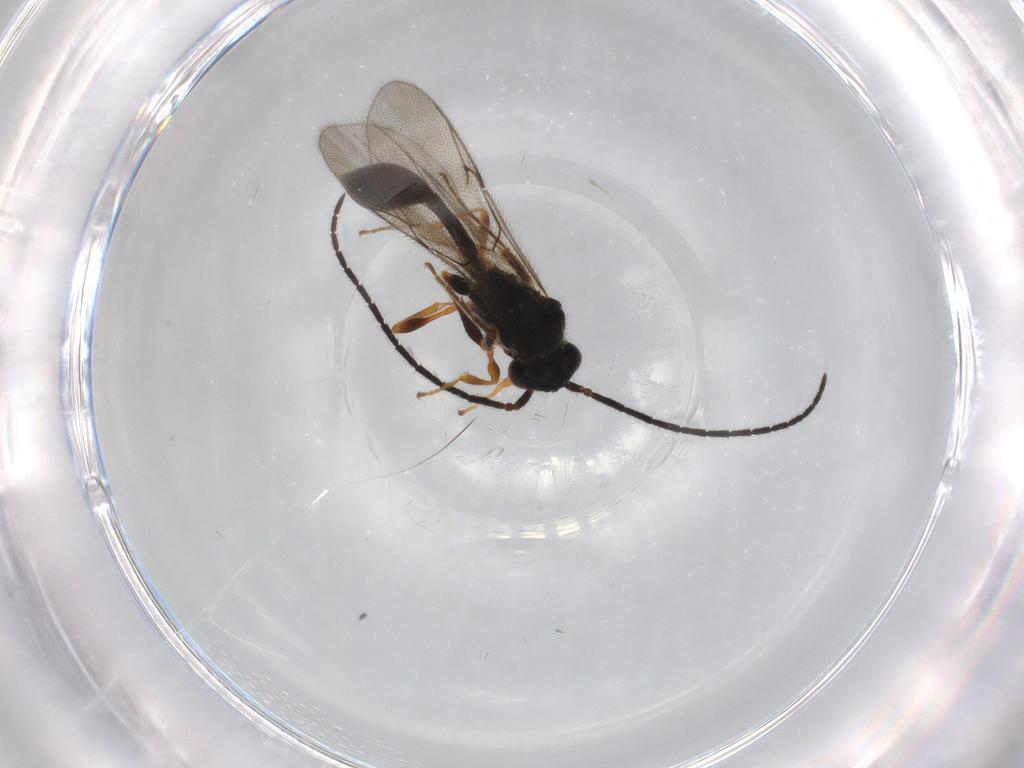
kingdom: Animalia
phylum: Arthropoda
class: Insecta
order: Hymenoptera
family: Diapriidae
